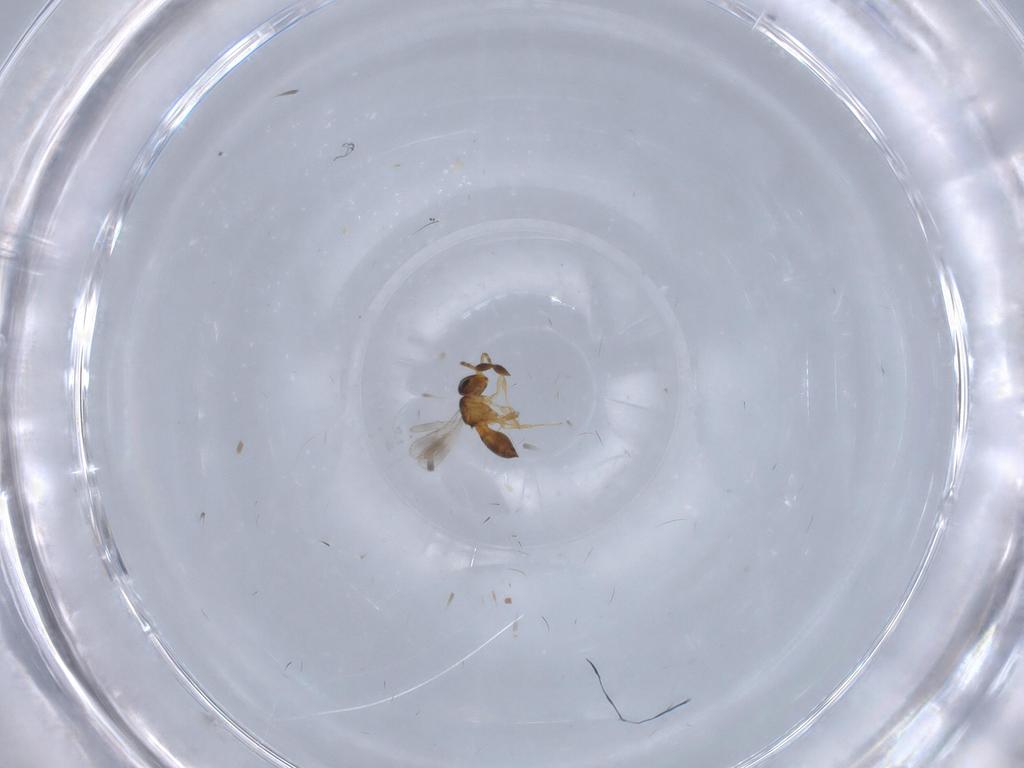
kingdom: Animalia
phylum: Arthropoda
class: Insecta
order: Hymenoptera
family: Scelionidae
